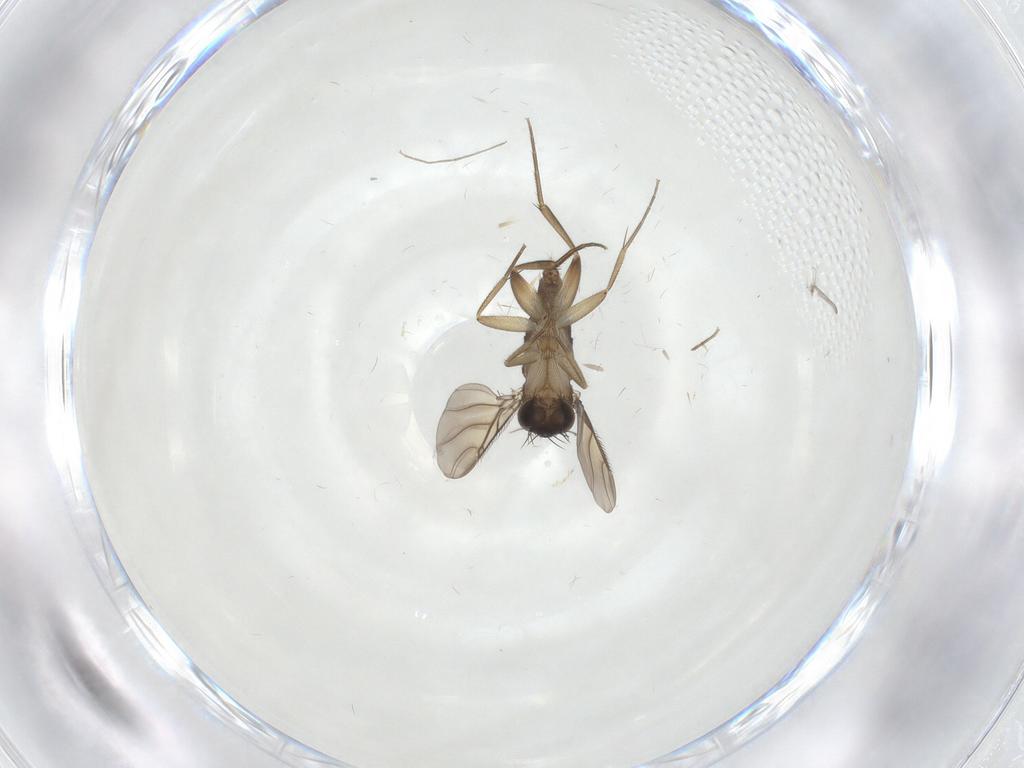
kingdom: Animalia
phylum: Arthropoda
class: Insecta
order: Diptera
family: Phoridae
